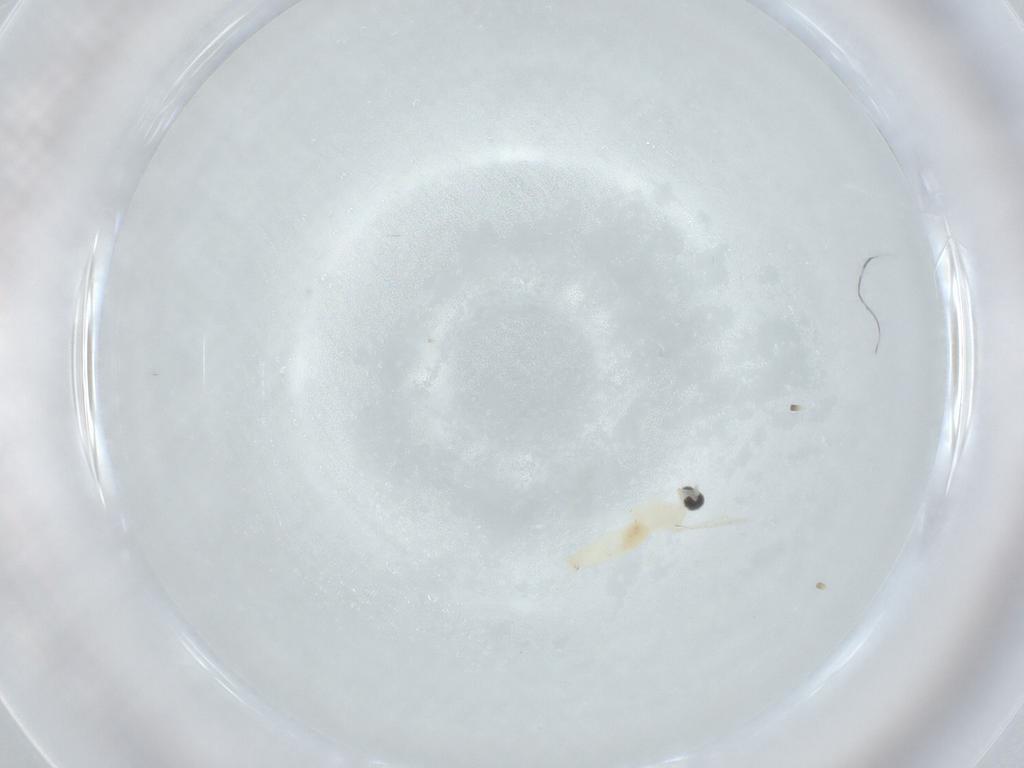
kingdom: Animalia
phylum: Arthropoda
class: Insecta
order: Diptera
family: Cecidomyiidae
